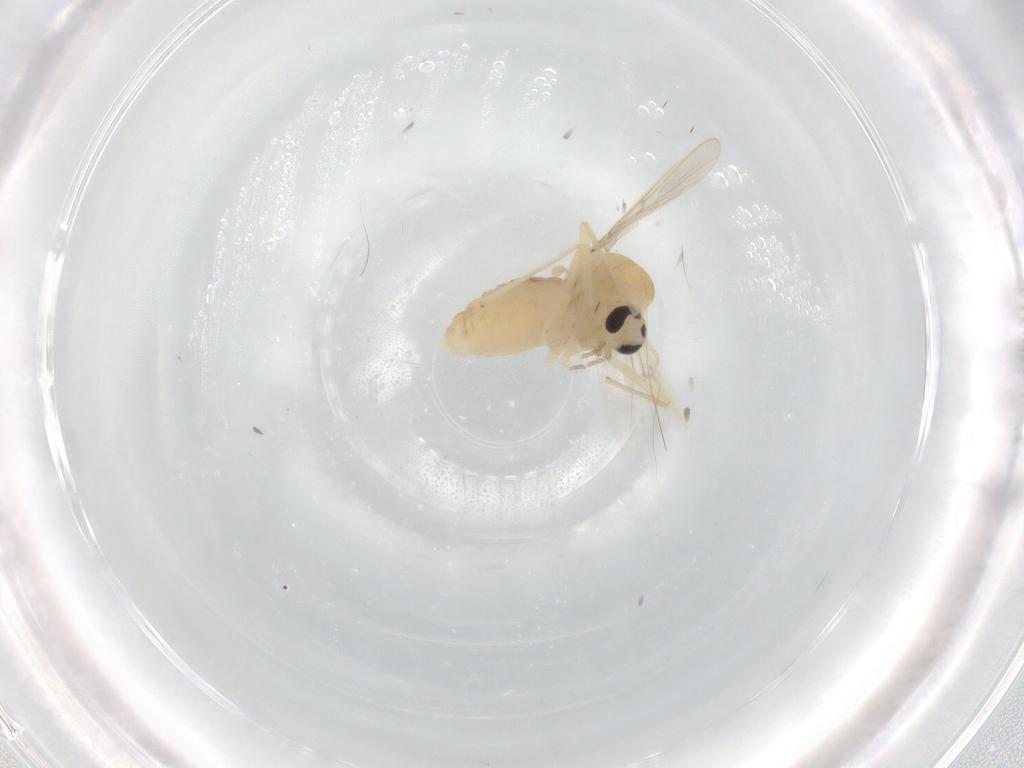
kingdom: Animalia
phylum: Arthropoda
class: Insecta
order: Diptera
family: Chironomidae
